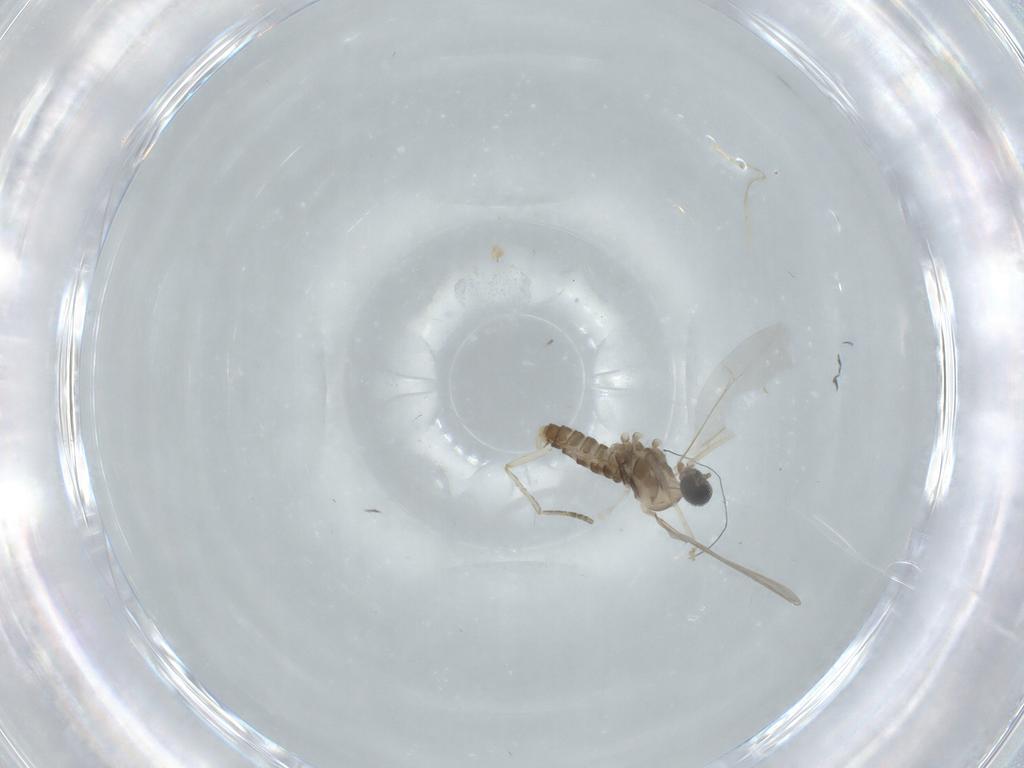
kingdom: Animalia
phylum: Arthropoda
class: Insecta
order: Diptera
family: Cecidomyiidae
